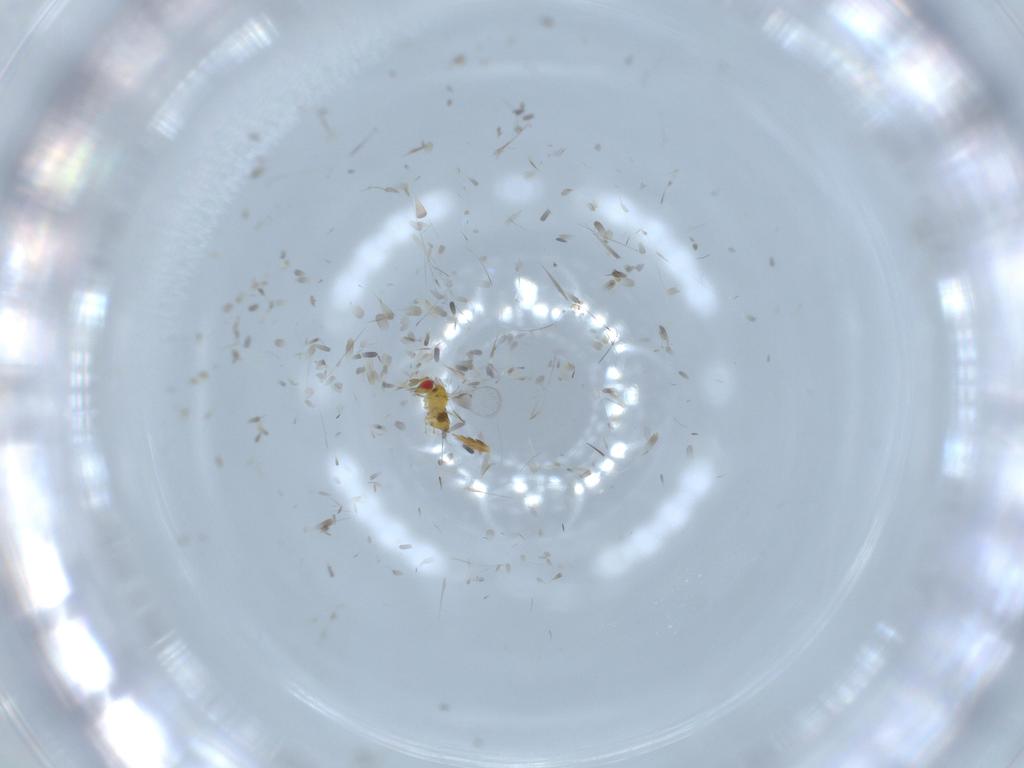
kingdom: Animalia
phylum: Arthropoda
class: Insecta
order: Hymenoptera
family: Trichogrammatidae
